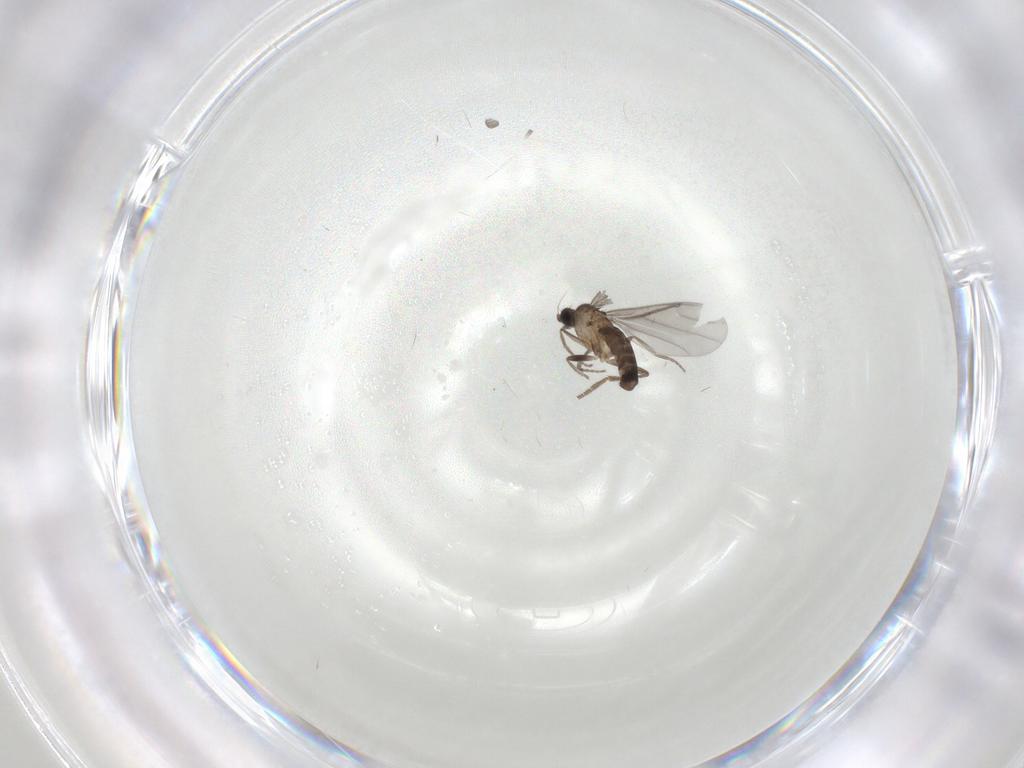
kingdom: Animalia
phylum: Arthropoda
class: Insecta
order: Diptera
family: Phoridae
